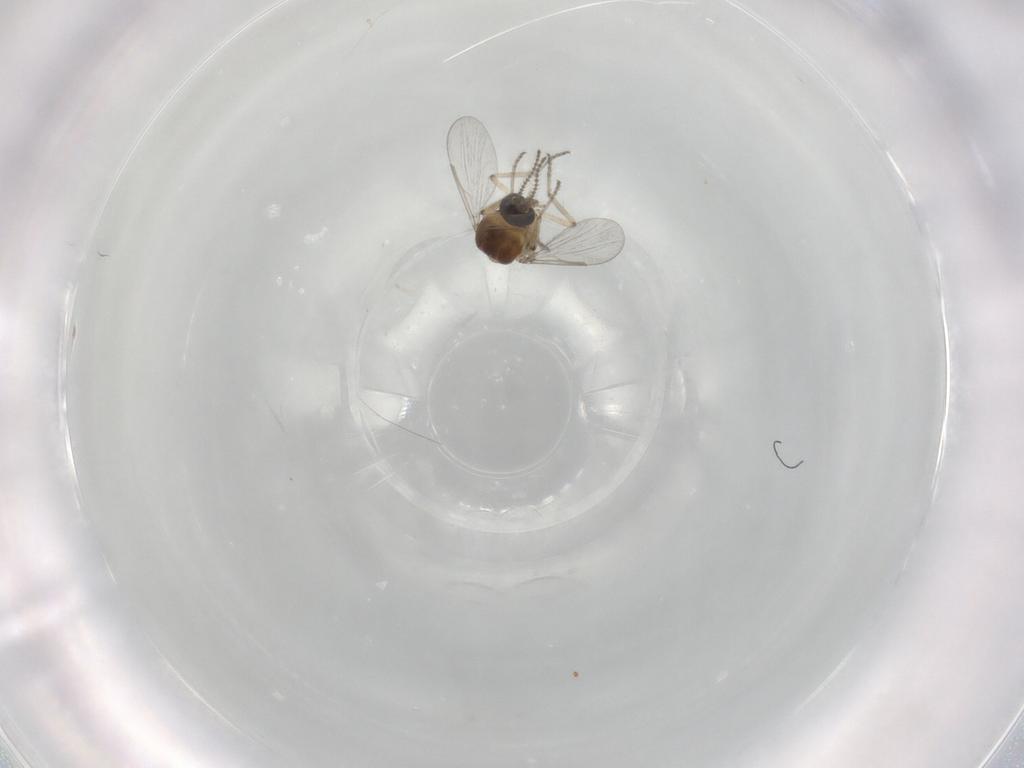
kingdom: Animalia
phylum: Arthropoda
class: Insecta
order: Diptera
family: Ceratopogonidae
